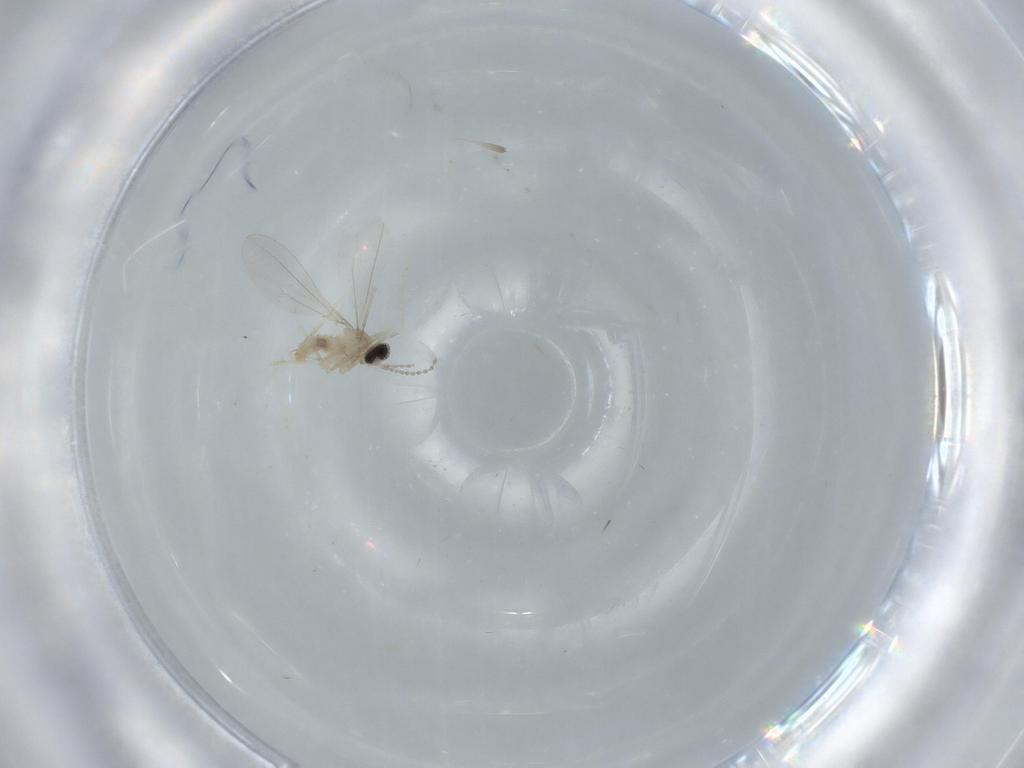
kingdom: Animalia
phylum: Arthropoda
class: Insecta
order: Diptera
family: Cecidomyiidae
